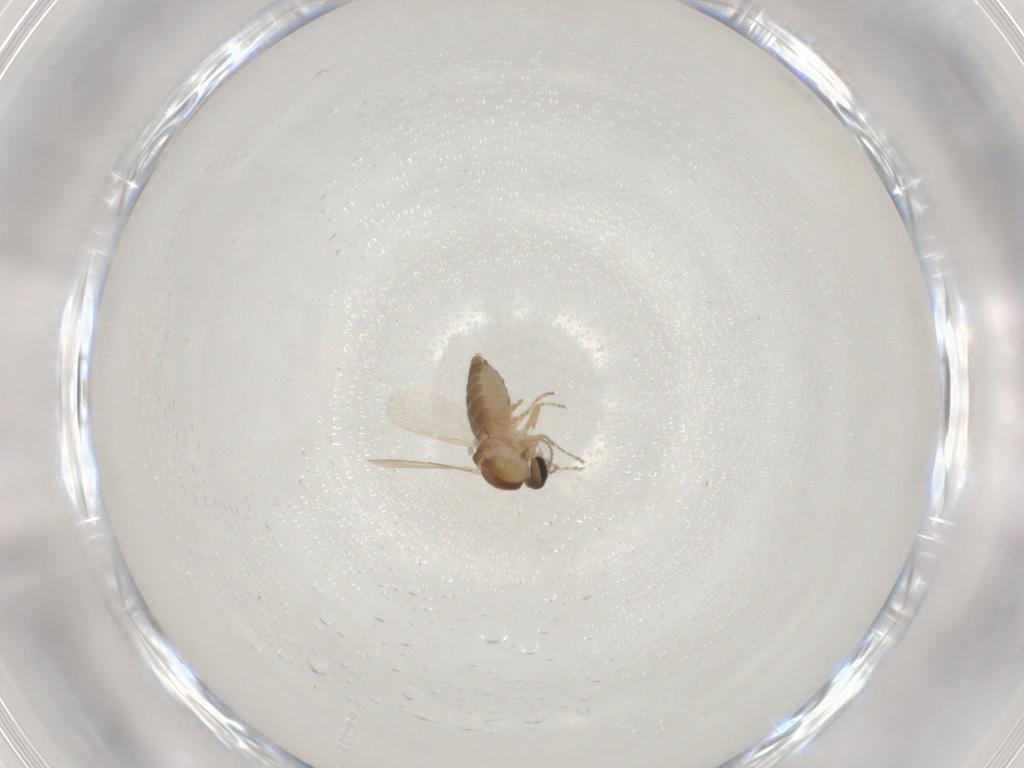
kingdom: Animalia
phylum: Arthropoda
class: Insecta
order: Diptera
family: Ceratopogonidae
